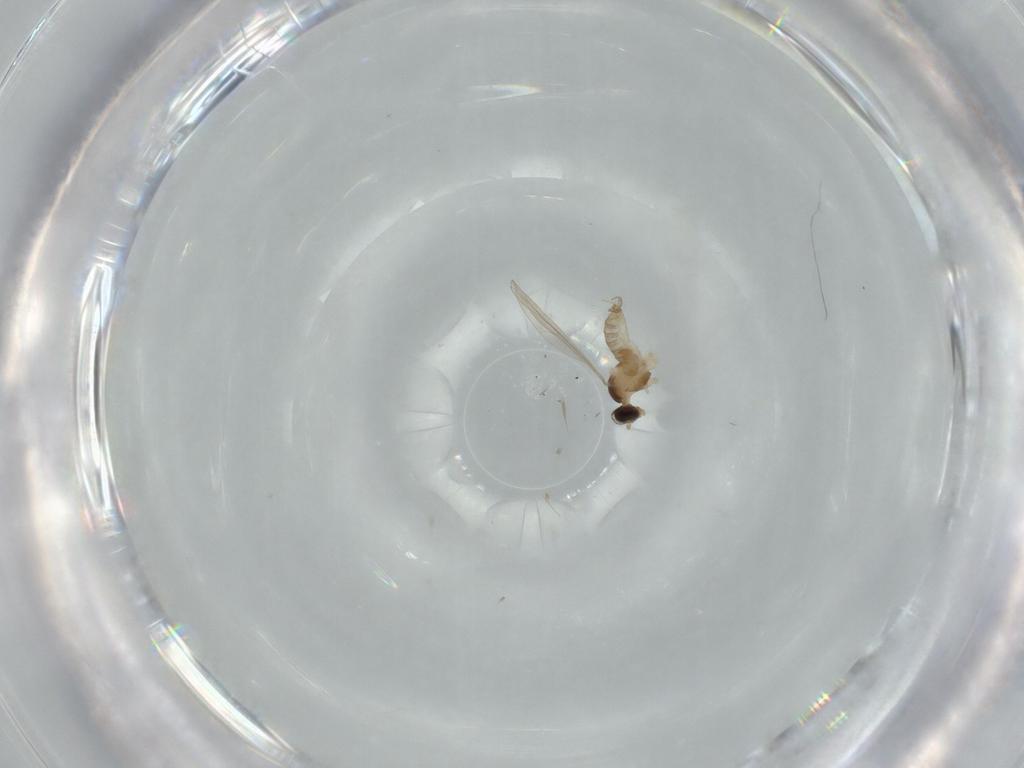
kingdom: Animalia
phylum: Arthropoda
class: Insecta
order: Diptera
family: Cecidomyiidae
